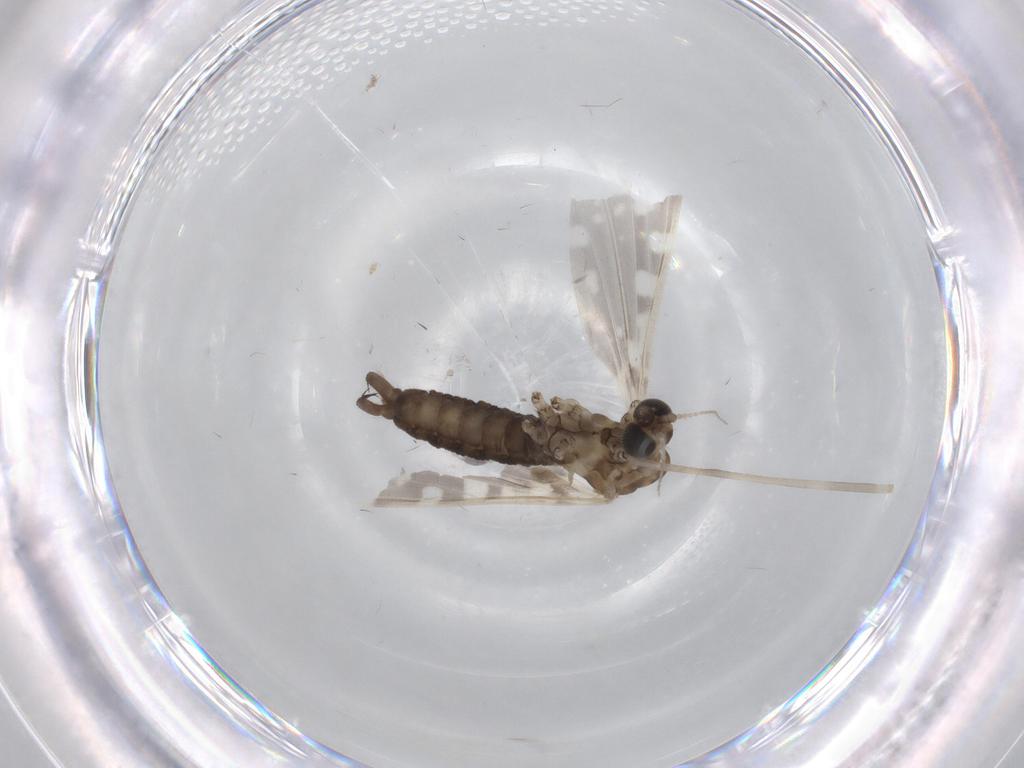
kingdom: Animalia
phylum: Arthropoda
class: Insecta
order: Diptera
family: Limoniidae
